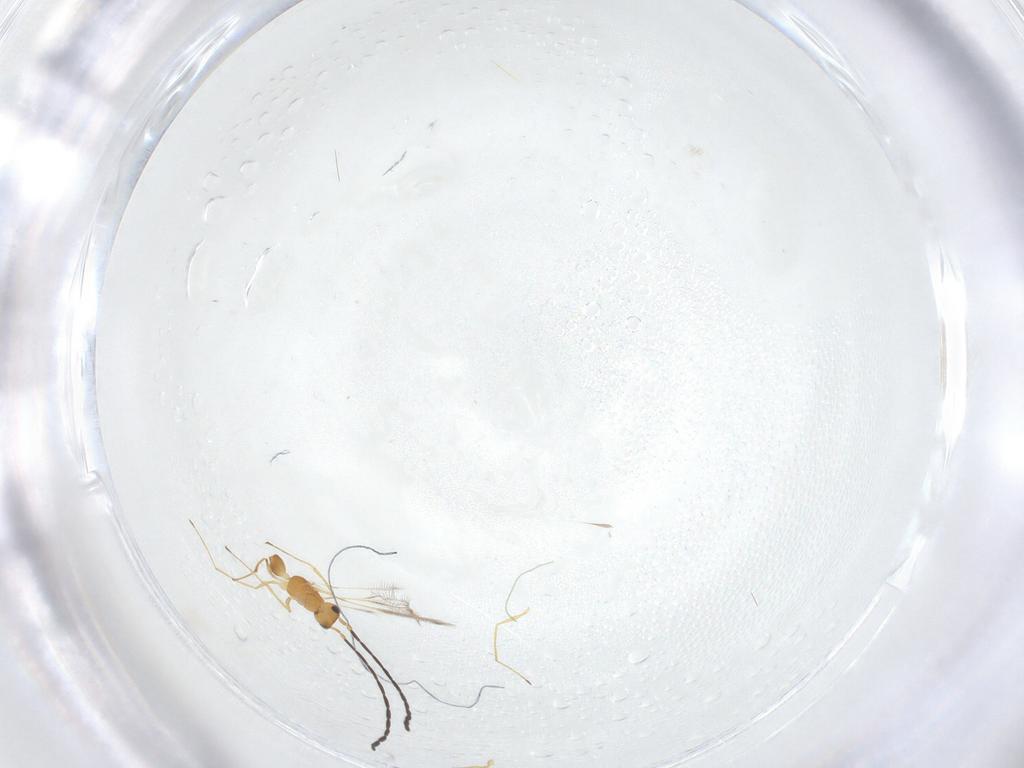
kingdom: Animalia
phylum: Arthropoda
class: Insecta
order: Hymenoptera
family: Mymaridae
